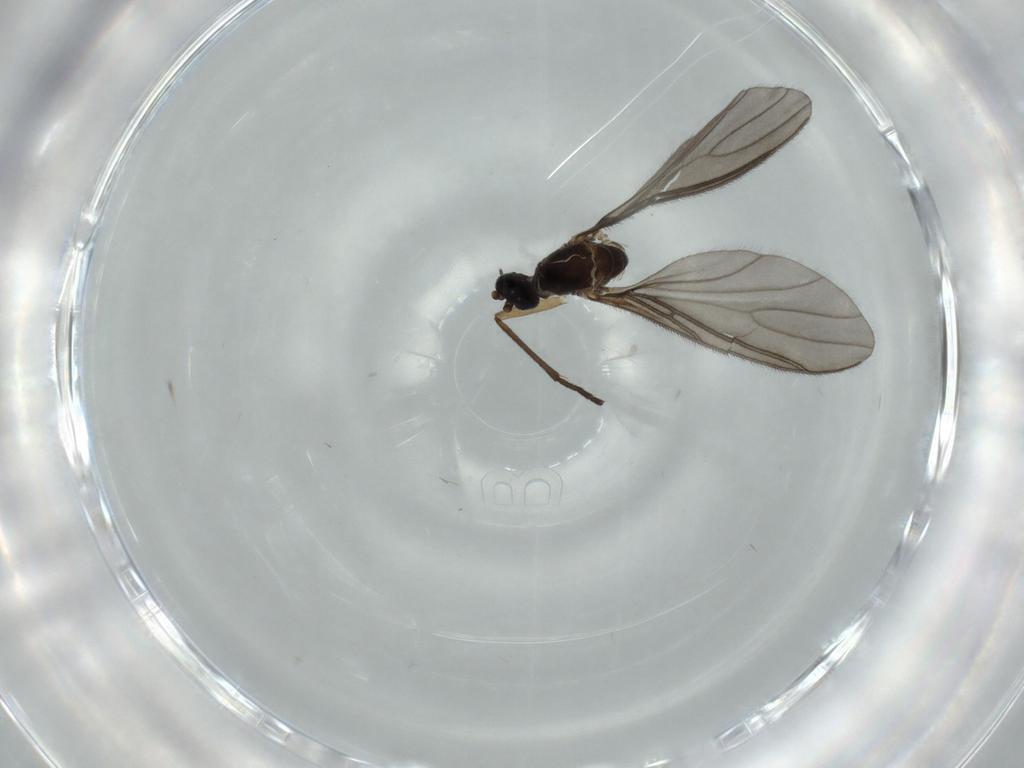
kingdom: Animalia
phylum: Arthropoda
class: Insecta
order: Diptera
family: Sciaridae
